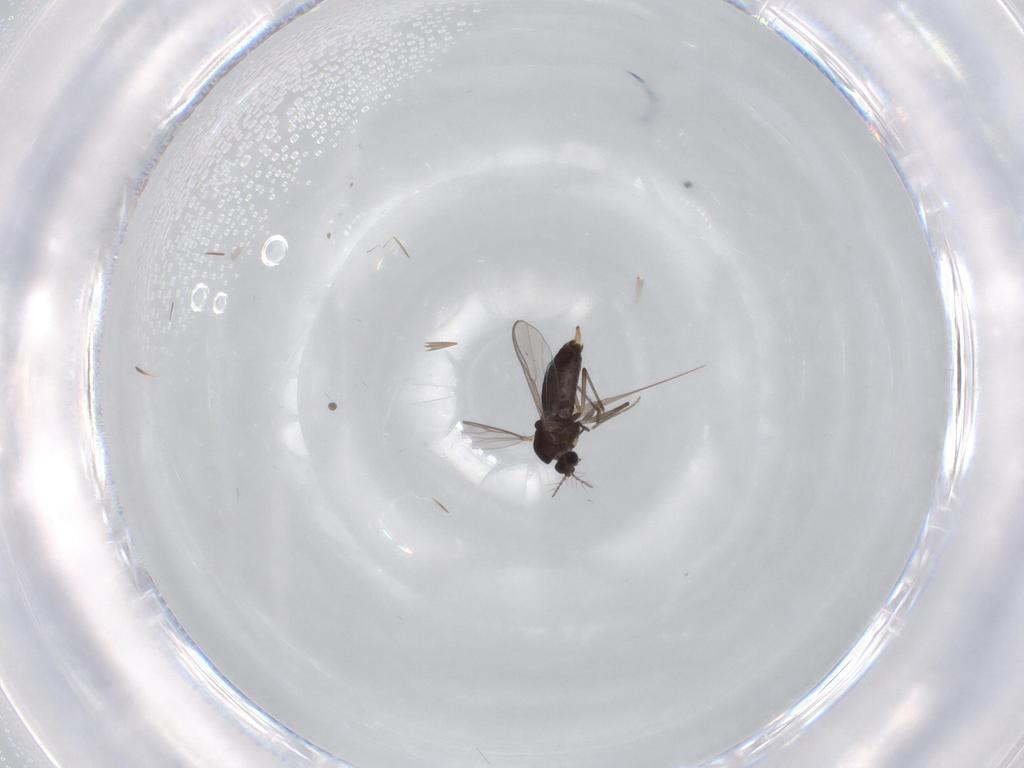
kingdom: Animalia
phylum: Arthropoda
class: Insecta
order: Diptera
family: Chironomidae
